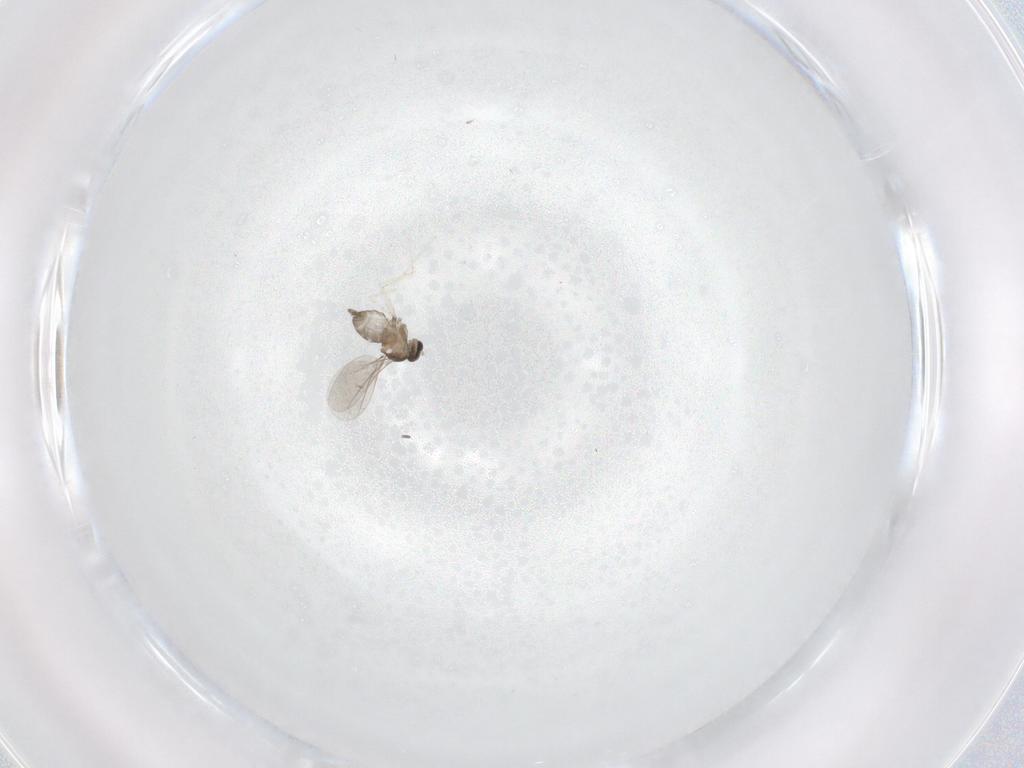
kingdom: Animalia
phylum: Arthropoda
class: Insecta
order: Diptera
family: Cecidomyiidae
